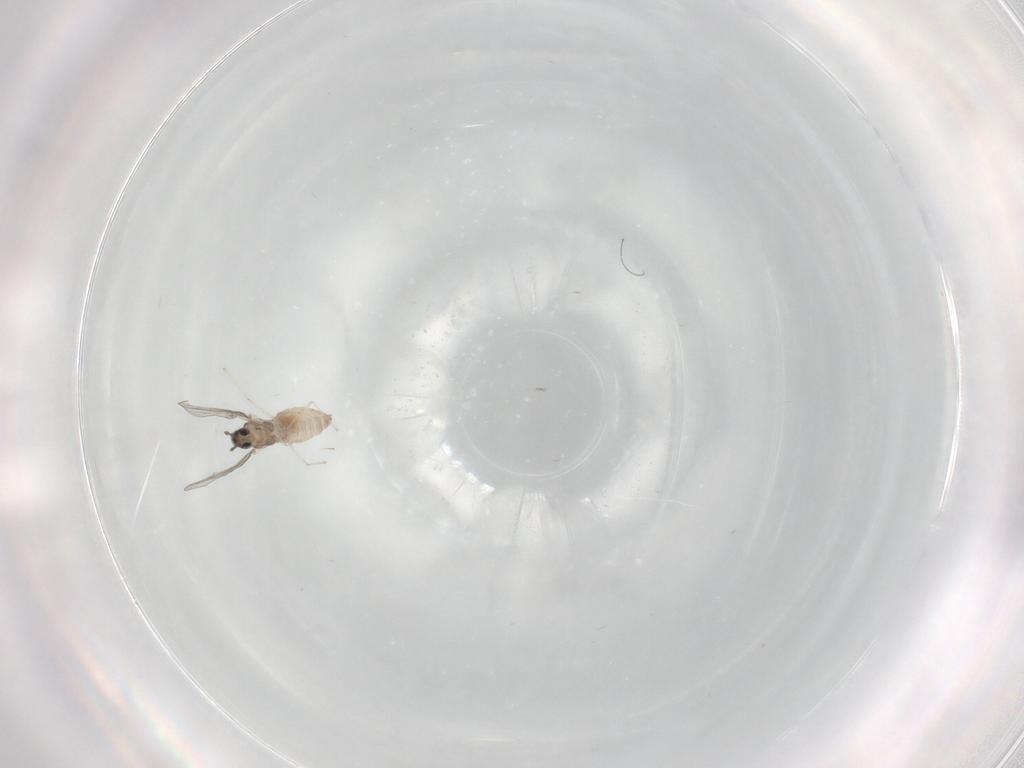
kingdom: Animalia
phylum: Arthropoda
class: Insecta
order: Diptera
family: Cecidomyiidae
